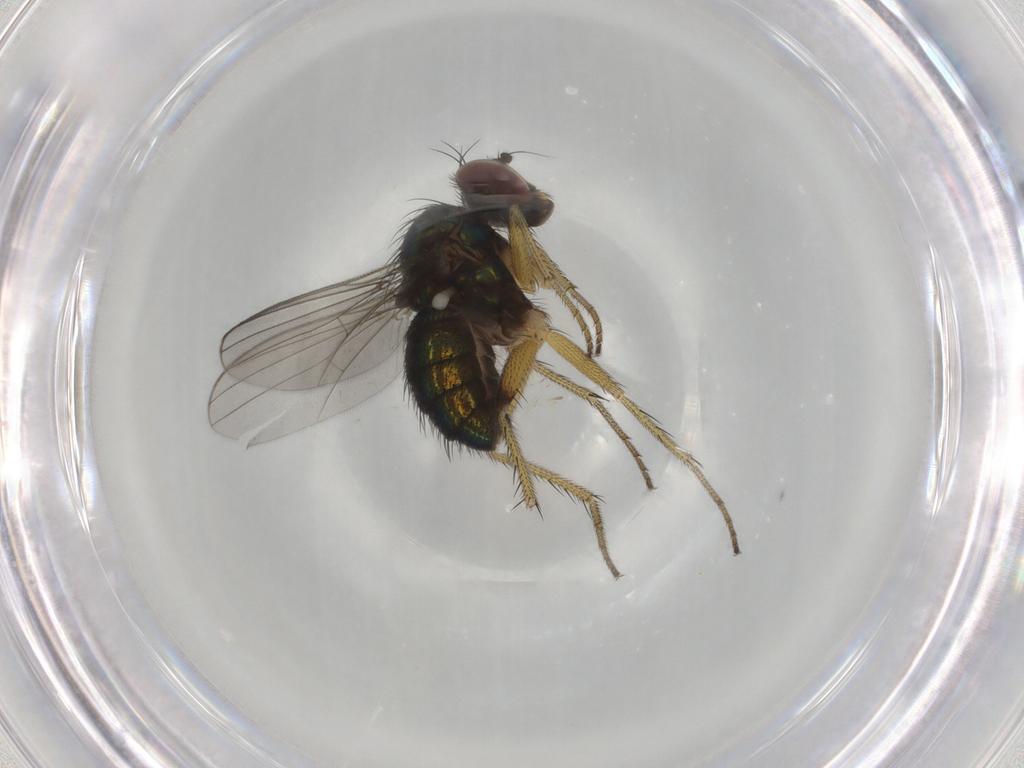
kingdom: Animalia
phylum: Arthropoda
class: Insecta
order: Diptera
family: Dolichopodidae
